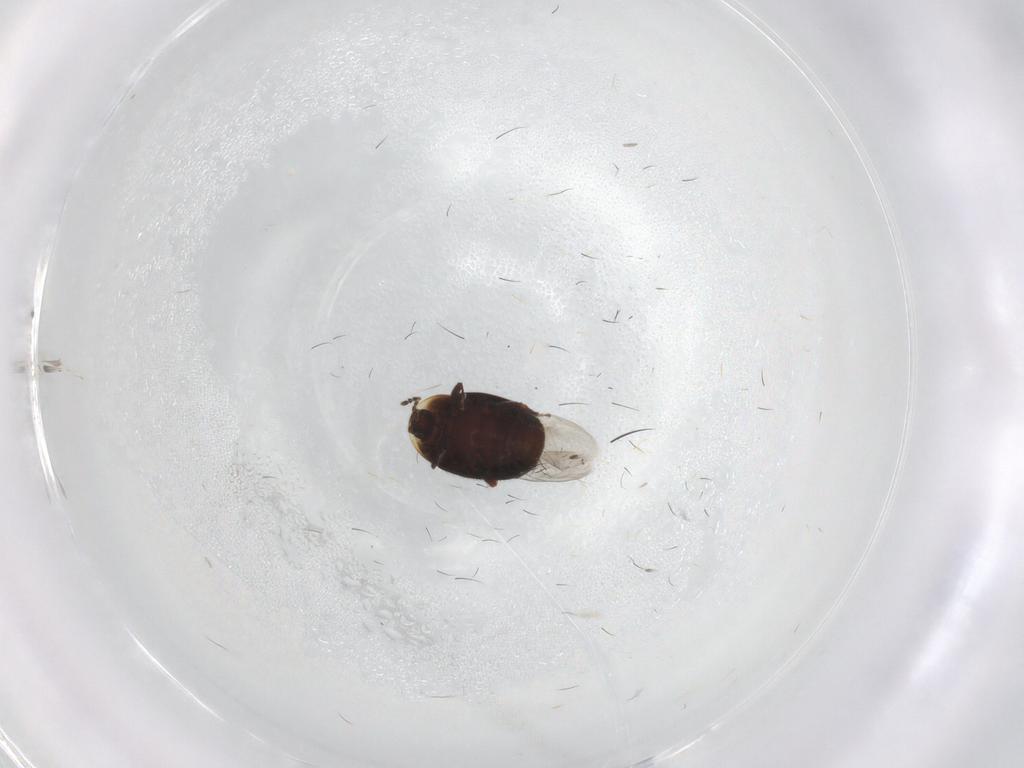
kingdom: Animalia
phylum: Arthropoda
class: Insecta
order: Coleoptera
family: Corylophidae
